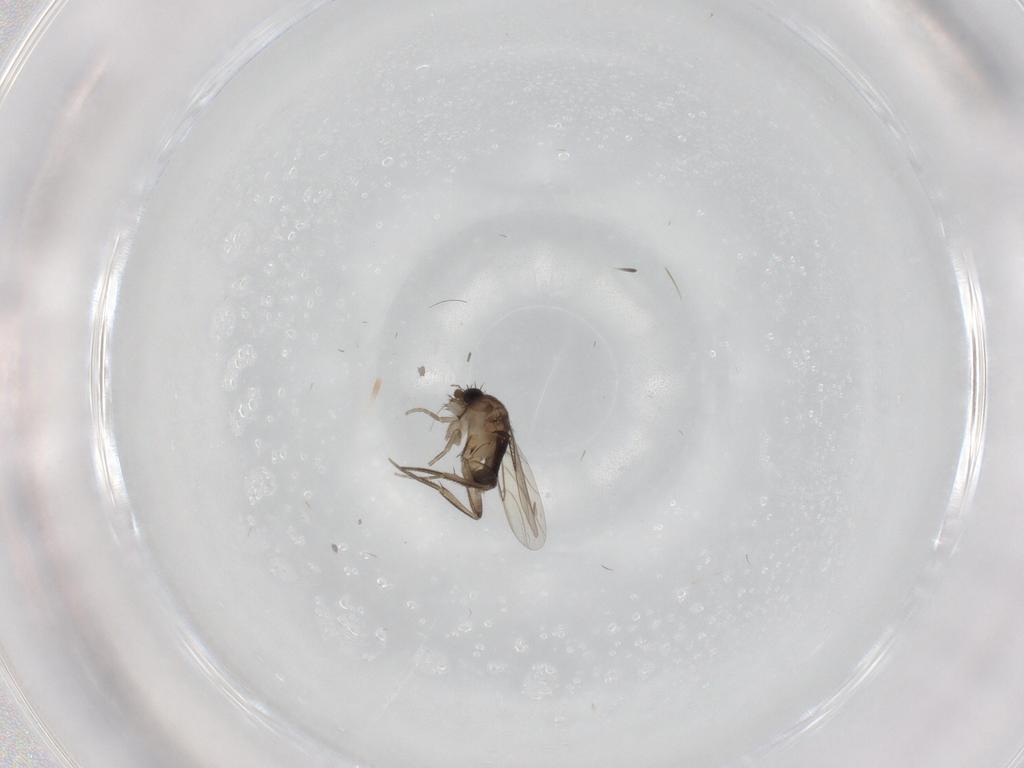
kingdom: Animalia
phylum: Arthropoda
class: Insecta
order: Diptera
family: Phoridae
